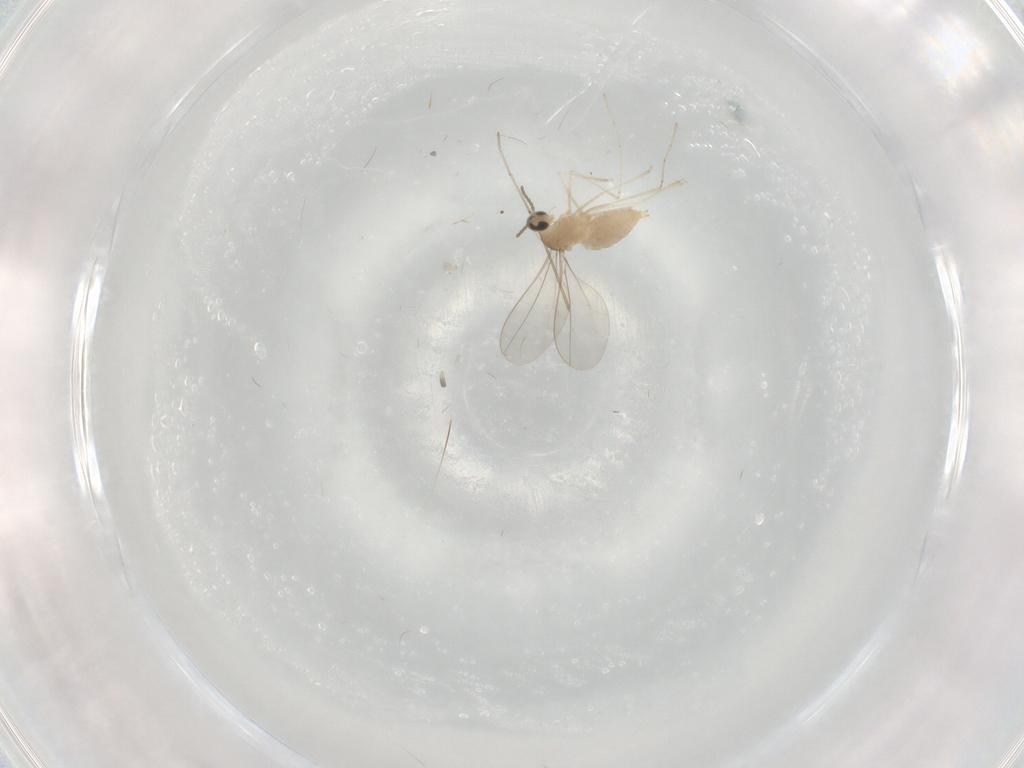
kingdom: Animalia
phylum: Arthropoda
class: Insecta
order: Diptera
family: Cecidomyiidae
